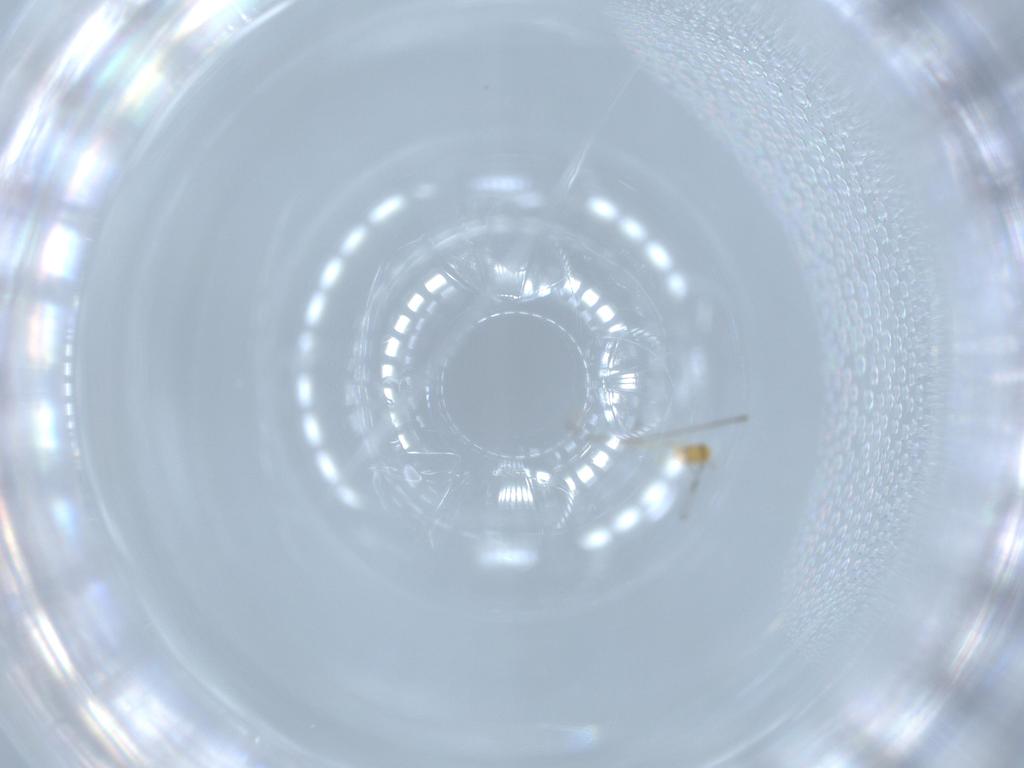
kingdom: Animalia
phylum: Arthropoda
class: Insecta
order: Hymenoptera
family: Trichogrammatidae
